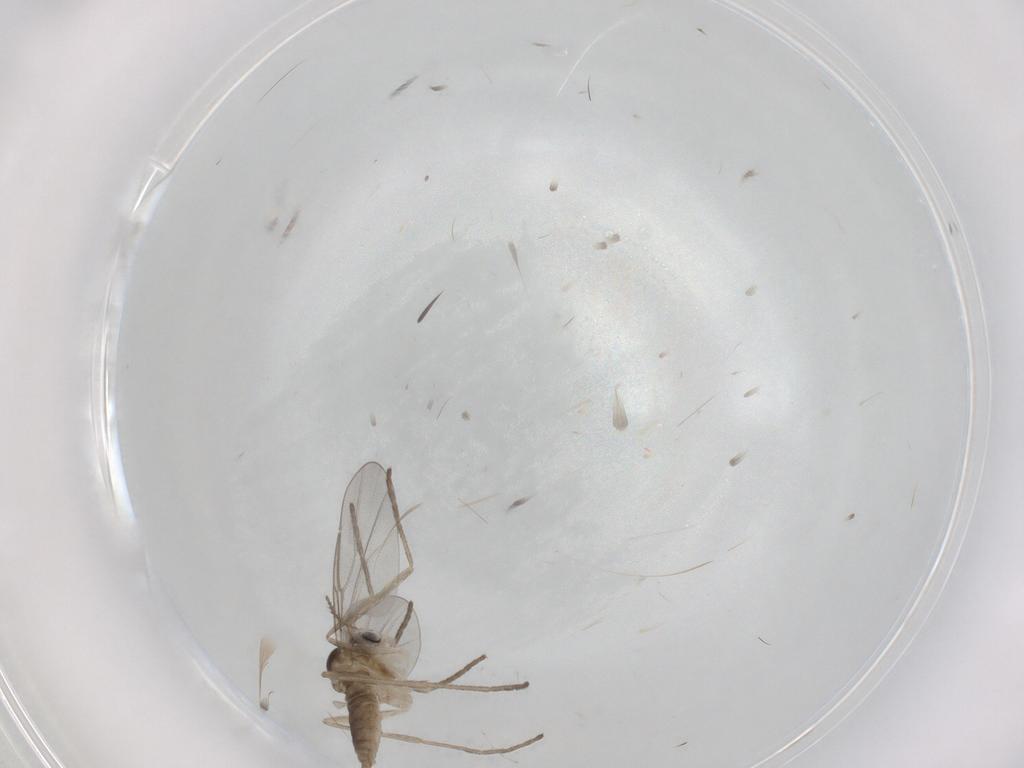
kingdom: Animalia
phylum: Arthropoda
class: Insecta
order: Diptera
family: Cecidomyiidae
